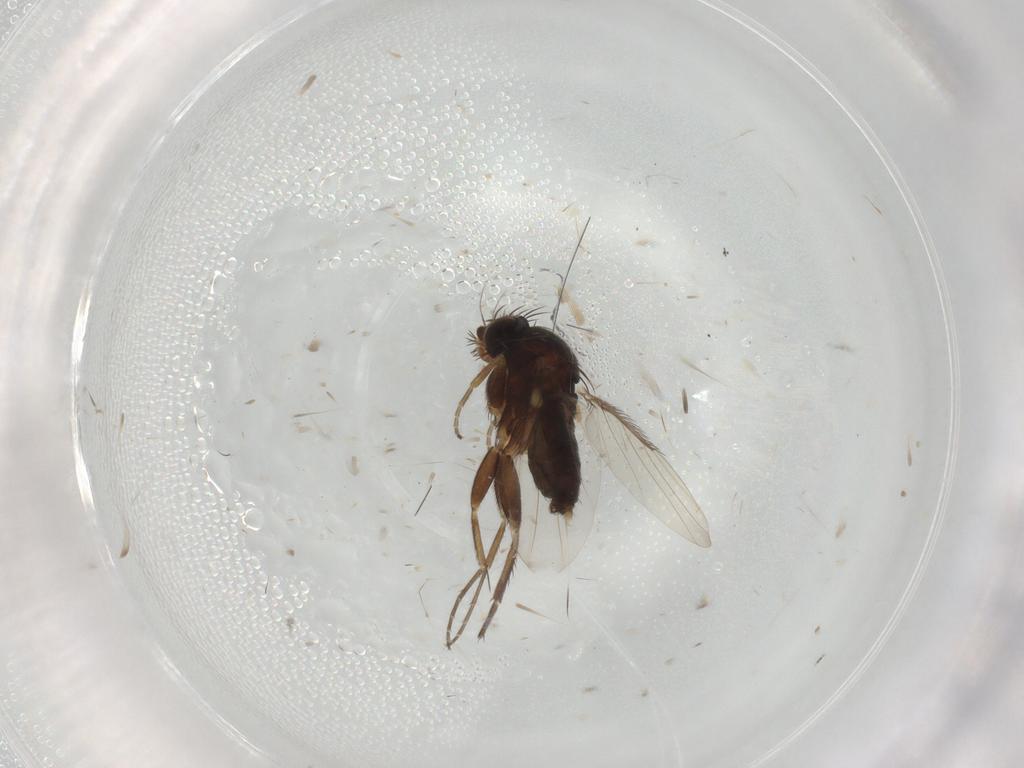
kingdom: Animalia
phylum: Arthropoda
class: Insecta
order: Diptera
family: Phoridae
